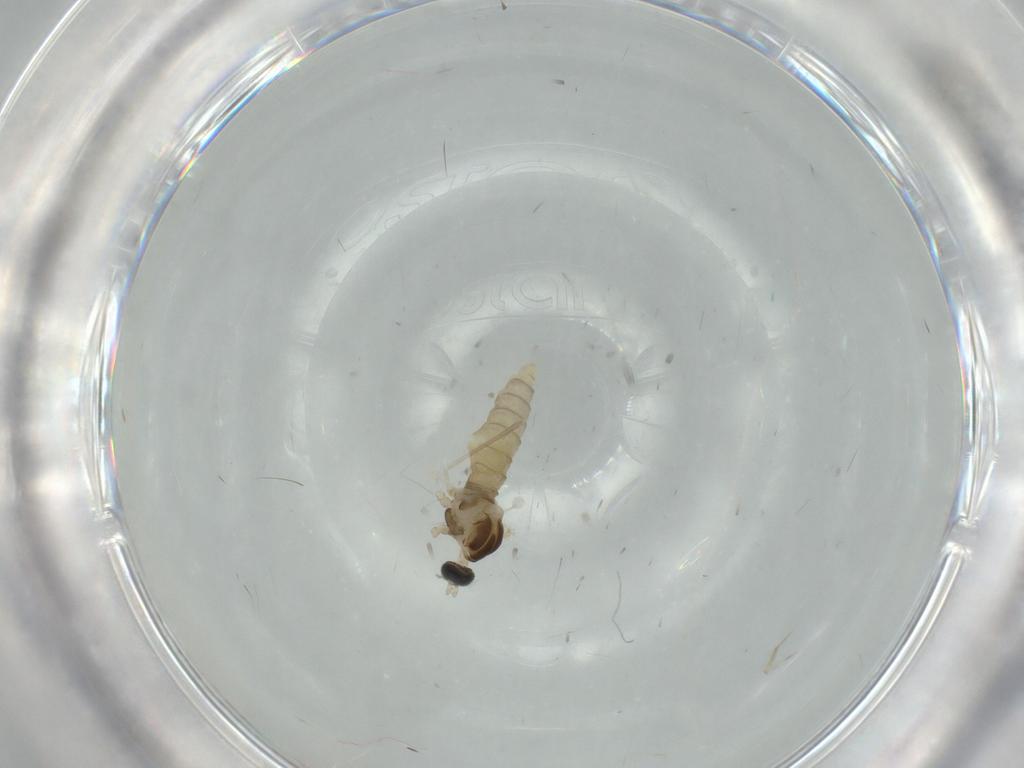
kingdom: Animalia
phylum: Arthropoda
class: Insecta
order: Diptera
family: Cecidomyiidae
